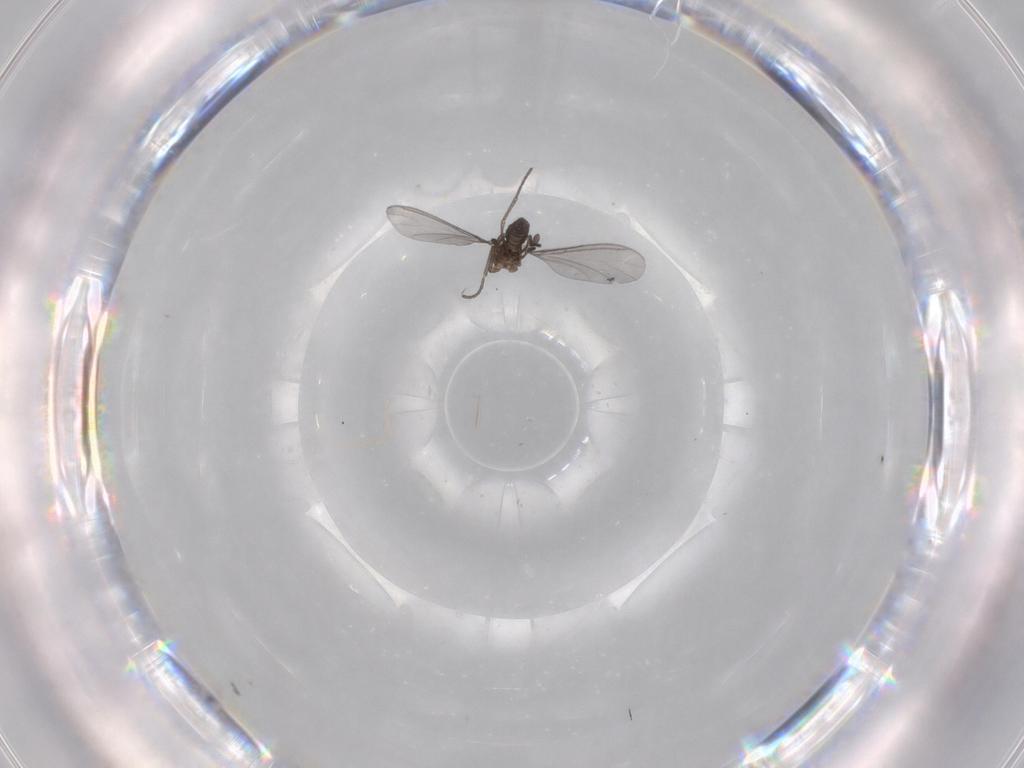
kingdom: Animalia
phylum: Arthropoda
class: Insecta
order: Diptera
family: Cecidomyiidae
